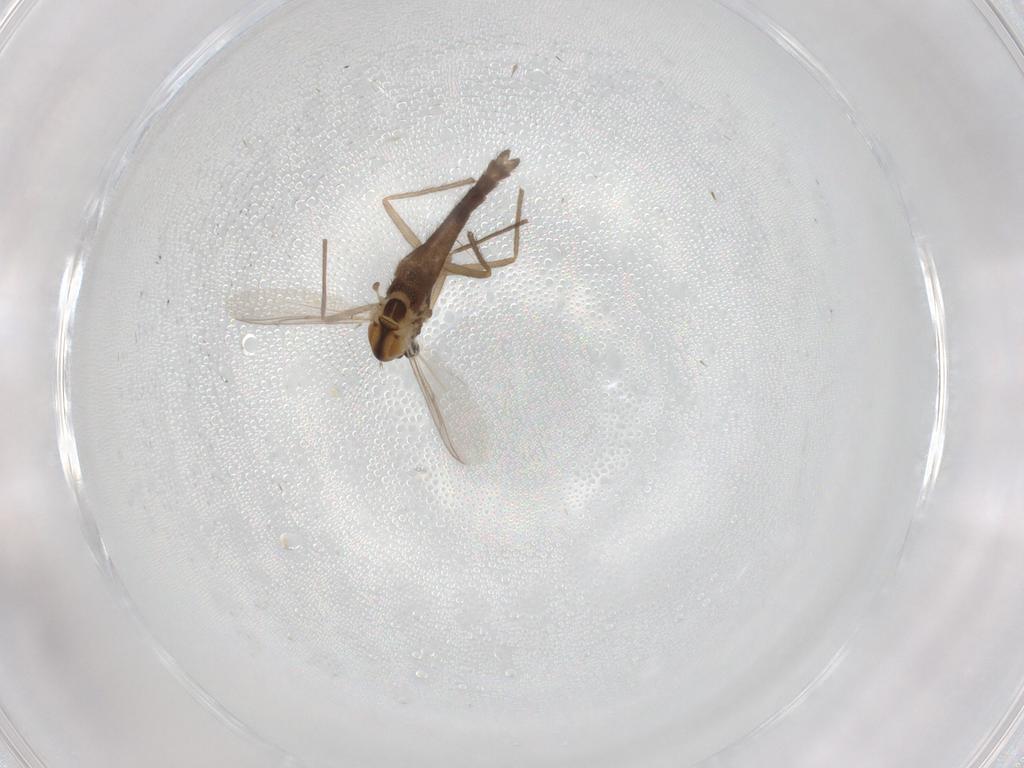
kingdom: Animalia
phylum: Arthropoda
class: Insecta
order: Diptera
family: Chironomidae
